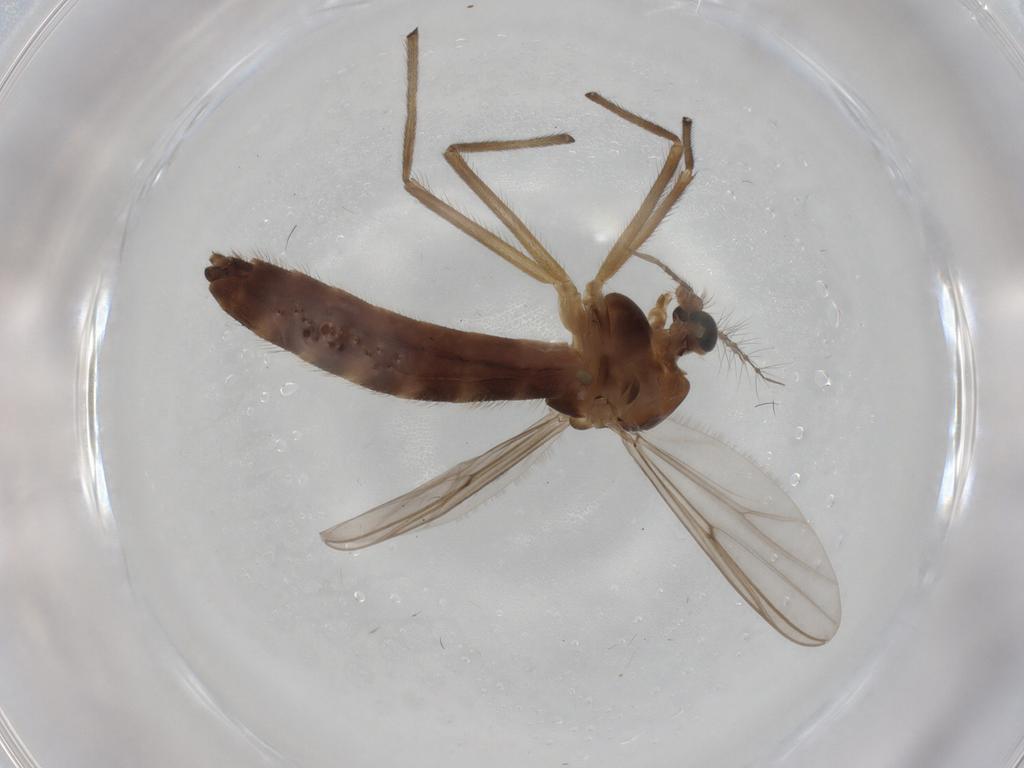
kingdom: Animalia
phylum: Arthropoda
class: Insecta
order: Diptera
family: Chironomidae
